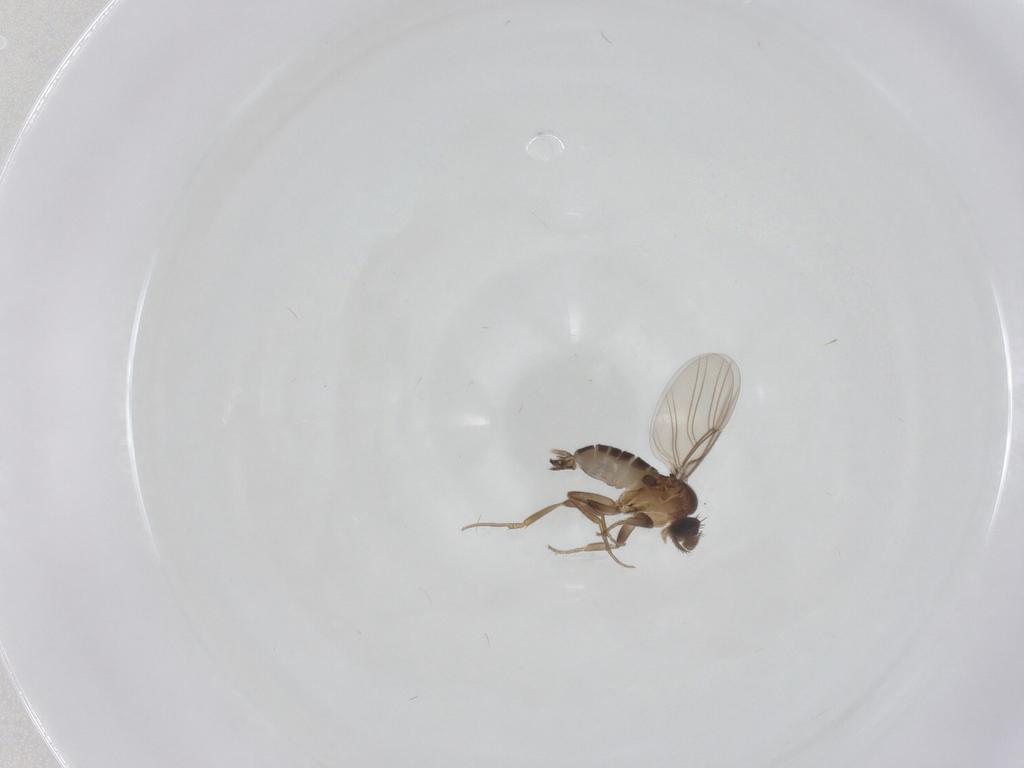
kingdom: Animalia
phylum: Arthropoda
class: Insecta
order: Diptera
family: Phoridae
